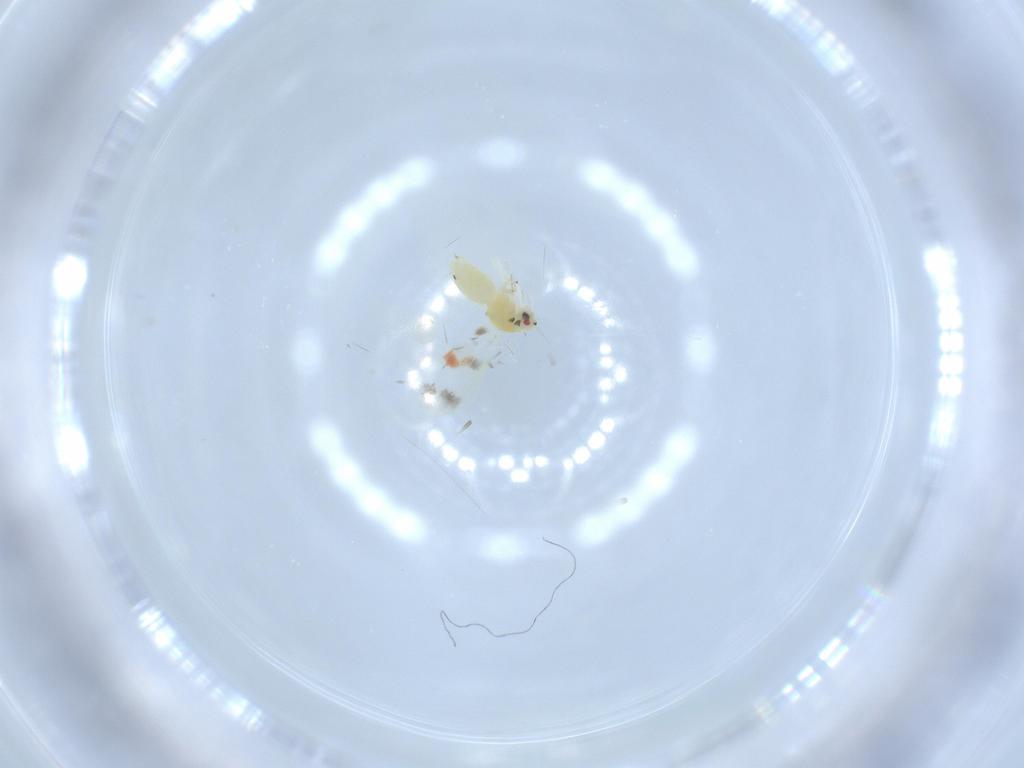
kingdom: Animalia
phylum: Arthropoda
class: Insecta
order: Hemiptera
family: Aleyrodidae
